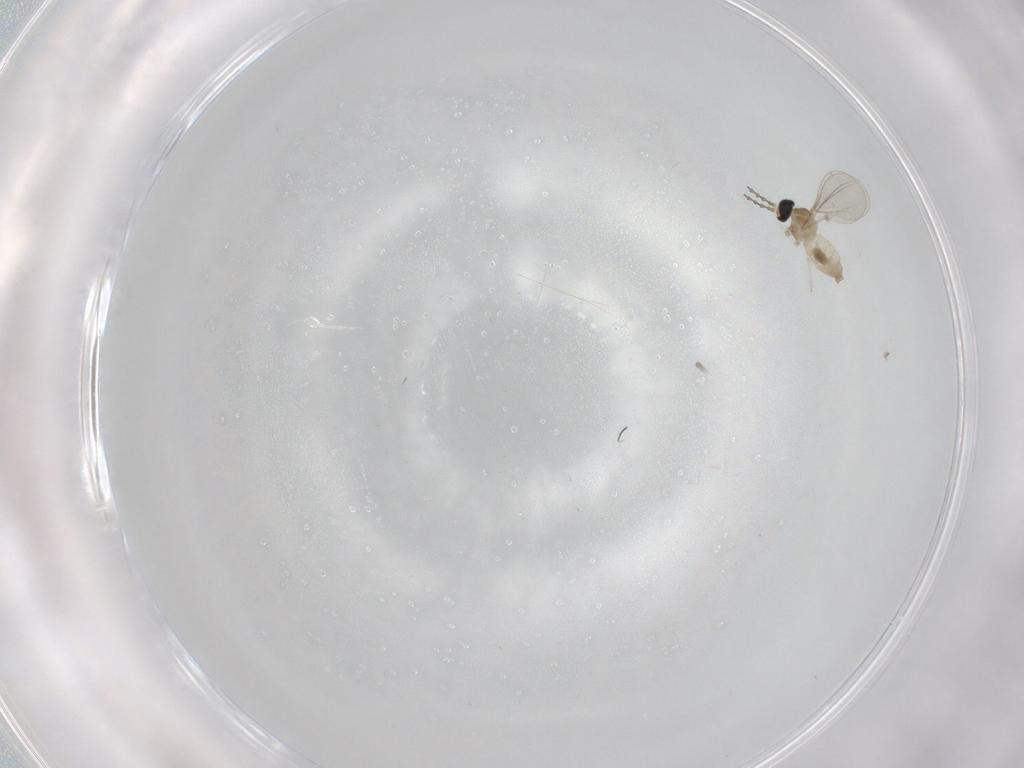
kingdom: Animalia
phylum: Arthropoda
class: Insecta
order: Diptera
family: Cecidomyiidae
